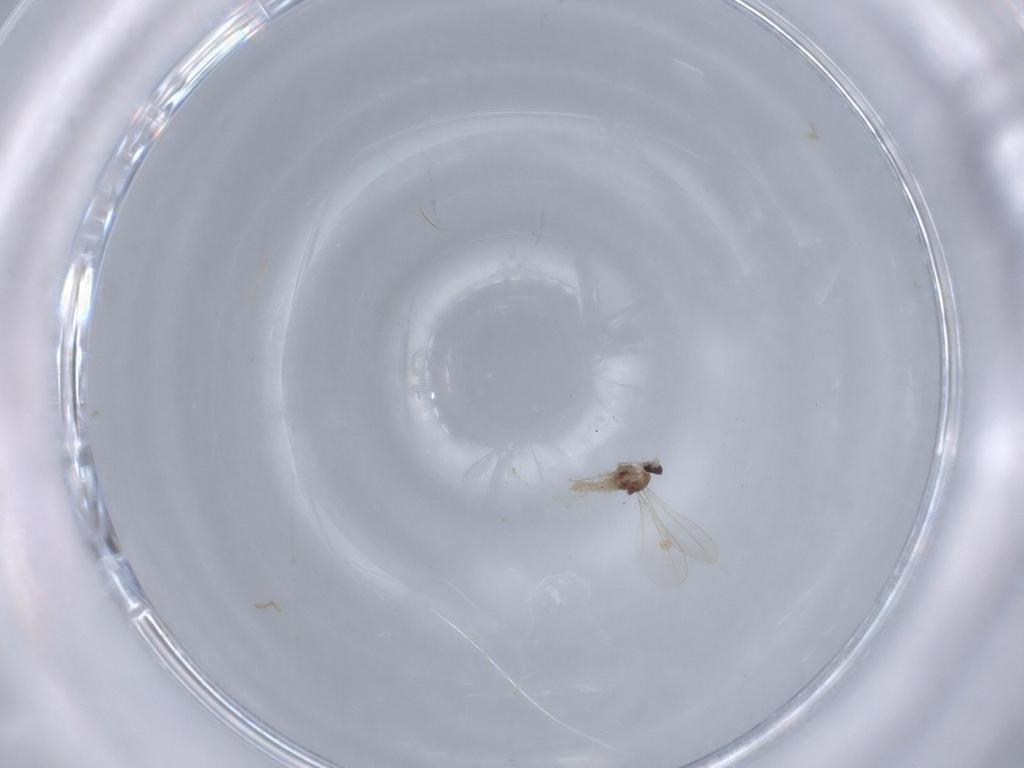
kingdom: Animalia
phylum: Arthropoda
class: Insecta
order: Diptera
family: Cecidomyiidae
